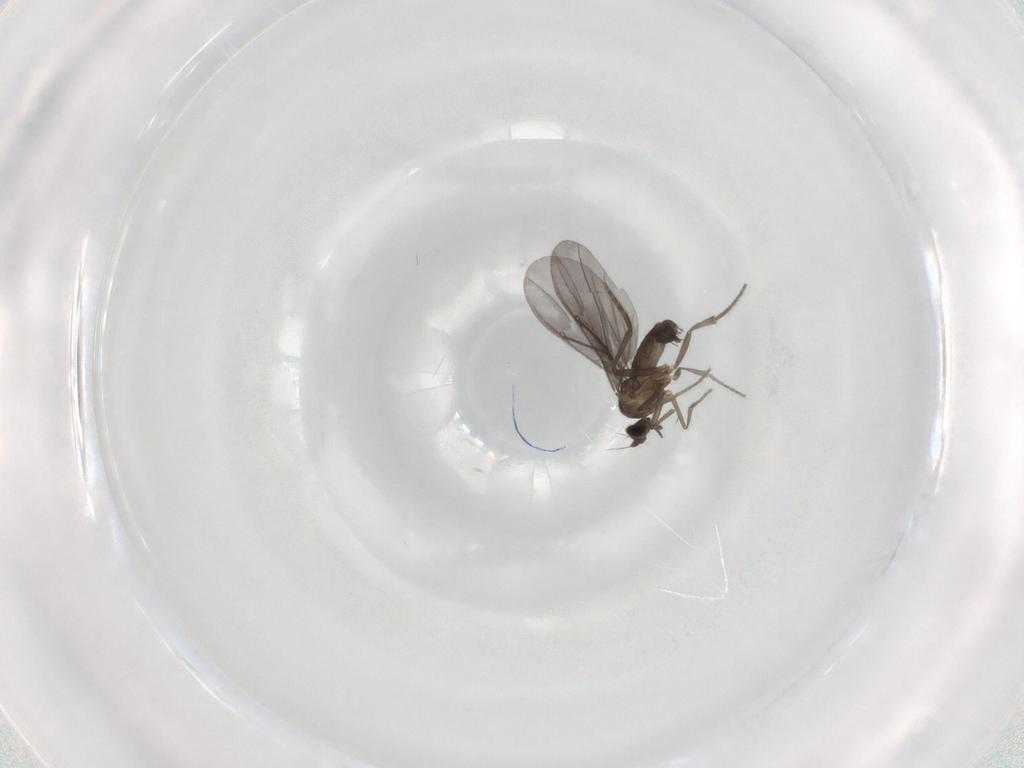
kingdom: Animalia
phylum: Arthropoda
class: Insecta
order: Diptera
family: Phoridae
